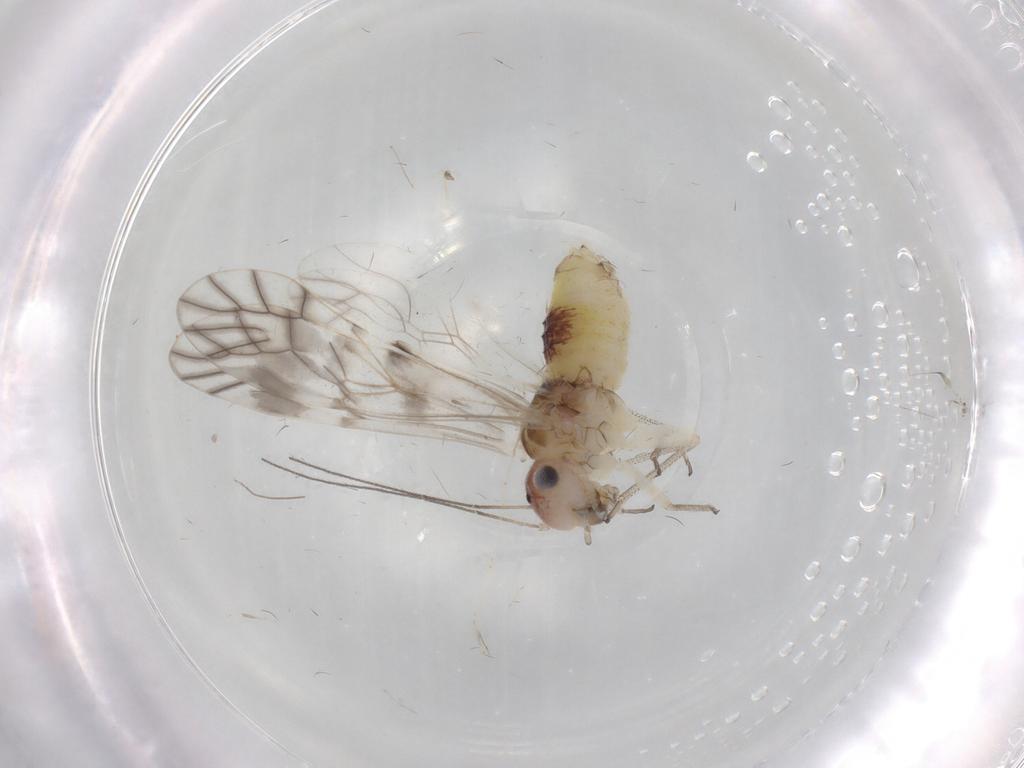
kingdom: Animalia
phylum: Arthropoda
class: Insecta
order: Psocodea
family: Myopsocidae
